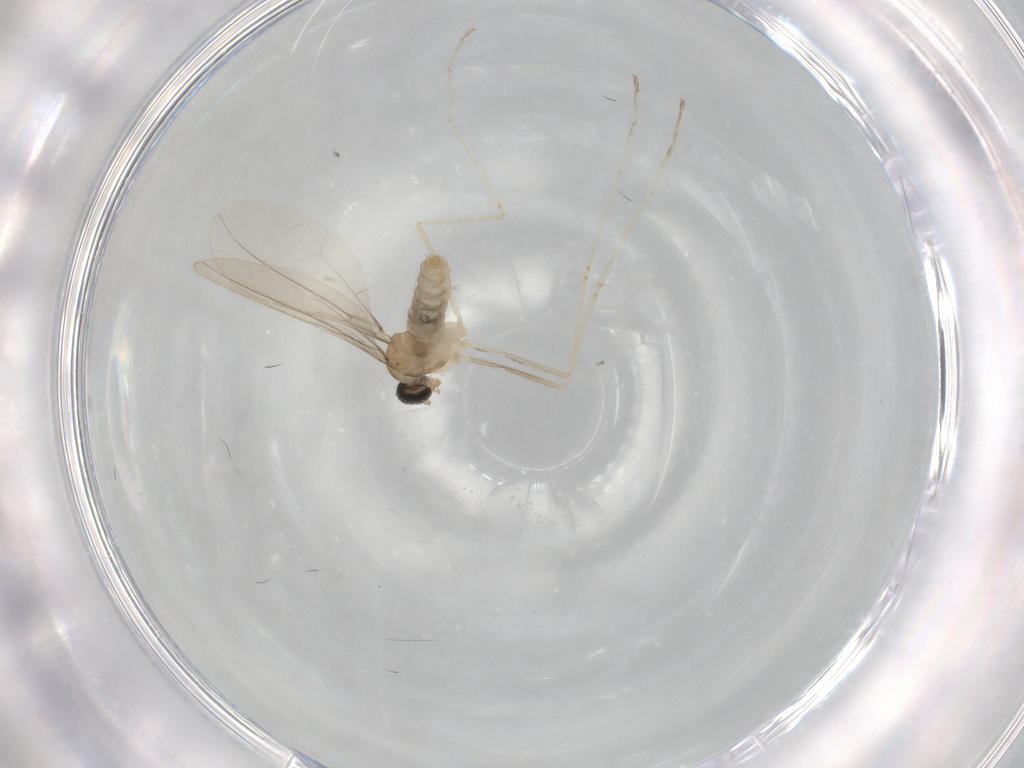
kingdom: Animalia
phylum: Arthropoda
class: Insecta
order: Diptera
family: Cecidomyiidae
